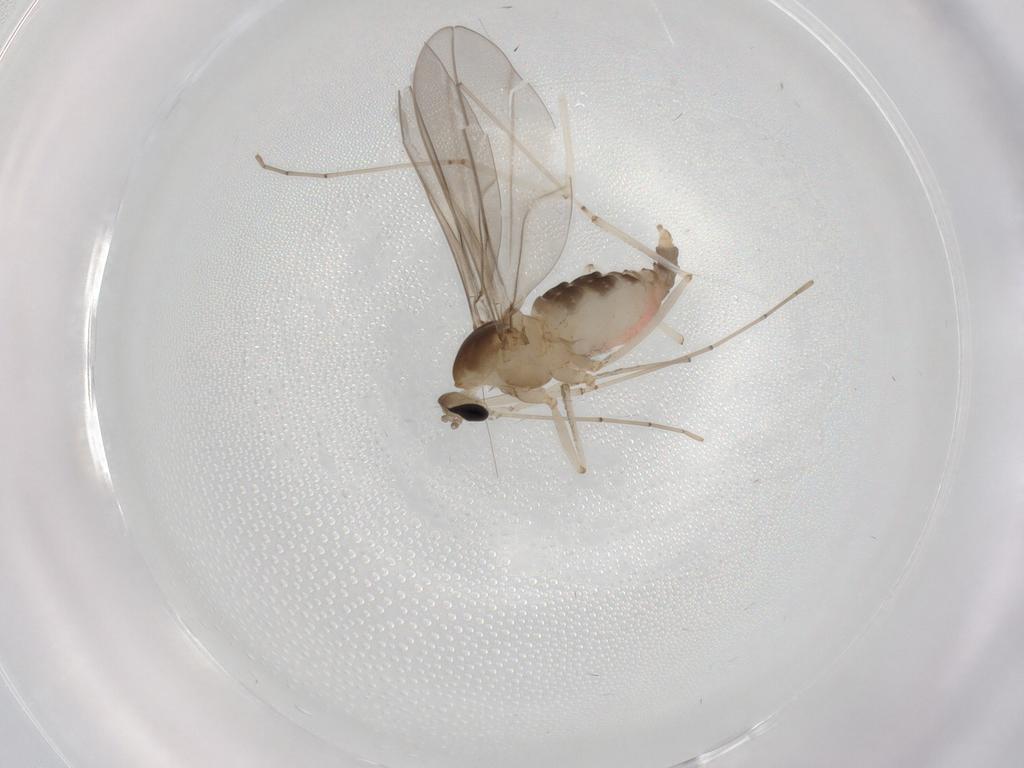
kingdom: Animalia
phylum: Arthropoda
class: Insecta
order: Diptera
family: Cecidomyiidae
